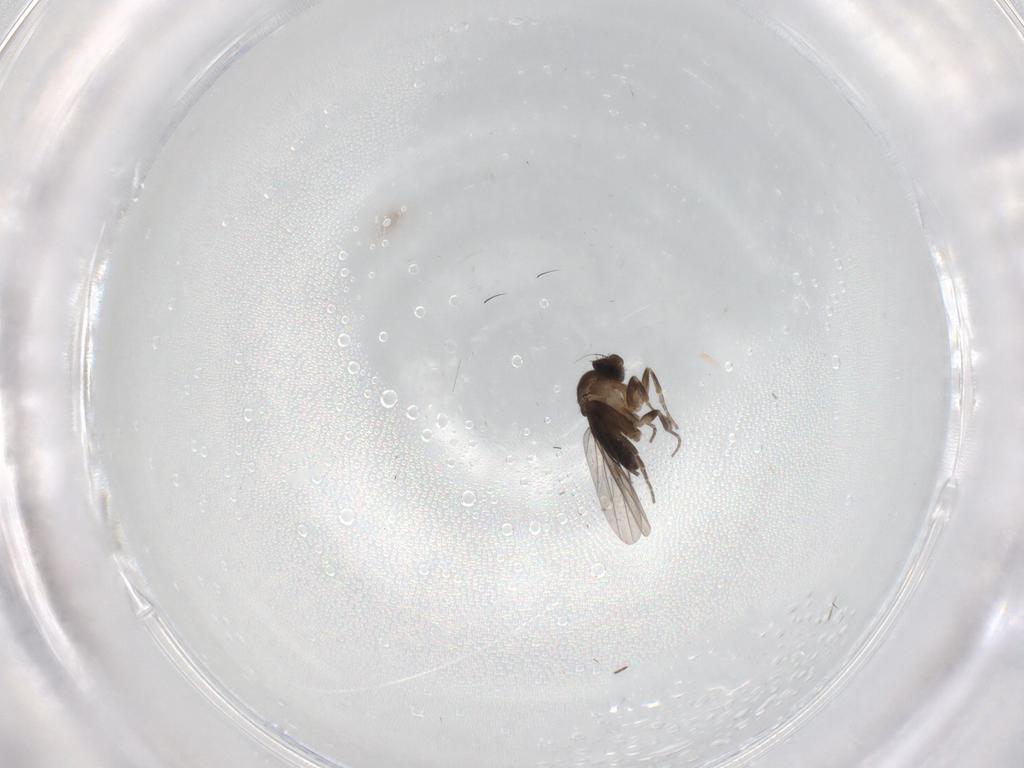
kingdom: Animalia
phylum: Arthropoda
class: Insecta
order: Diptera
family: Phoridae
